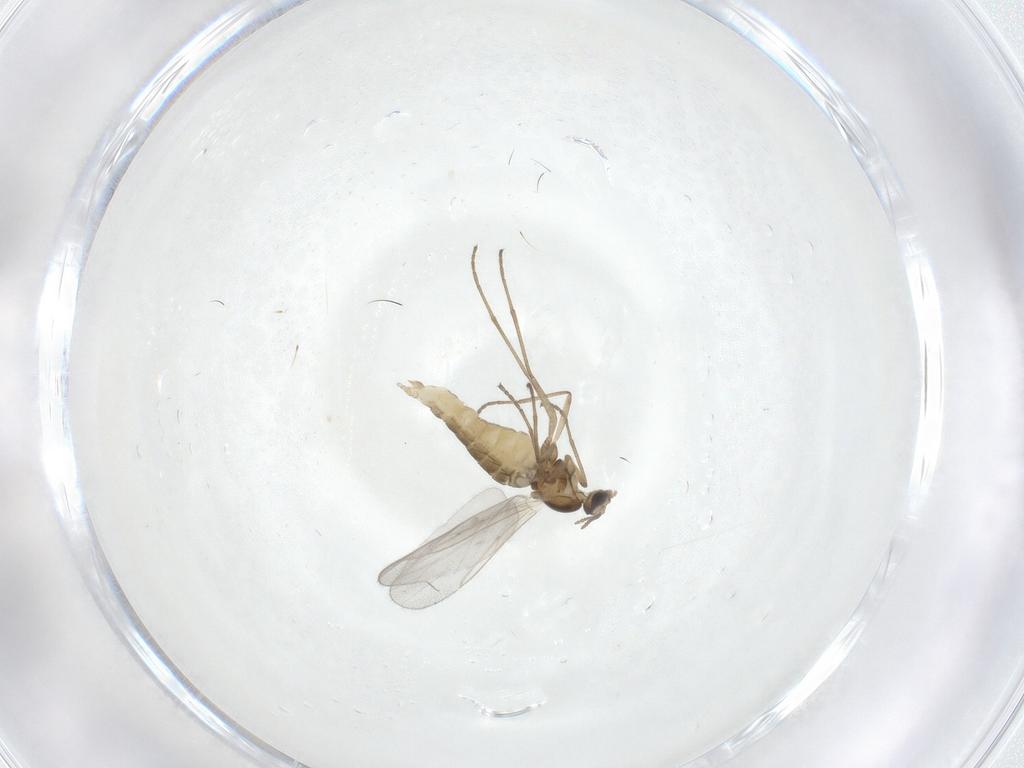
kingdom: Animalia
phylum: Arthropoda
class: Insecta
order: Diptera
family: Cecidomyiidae
